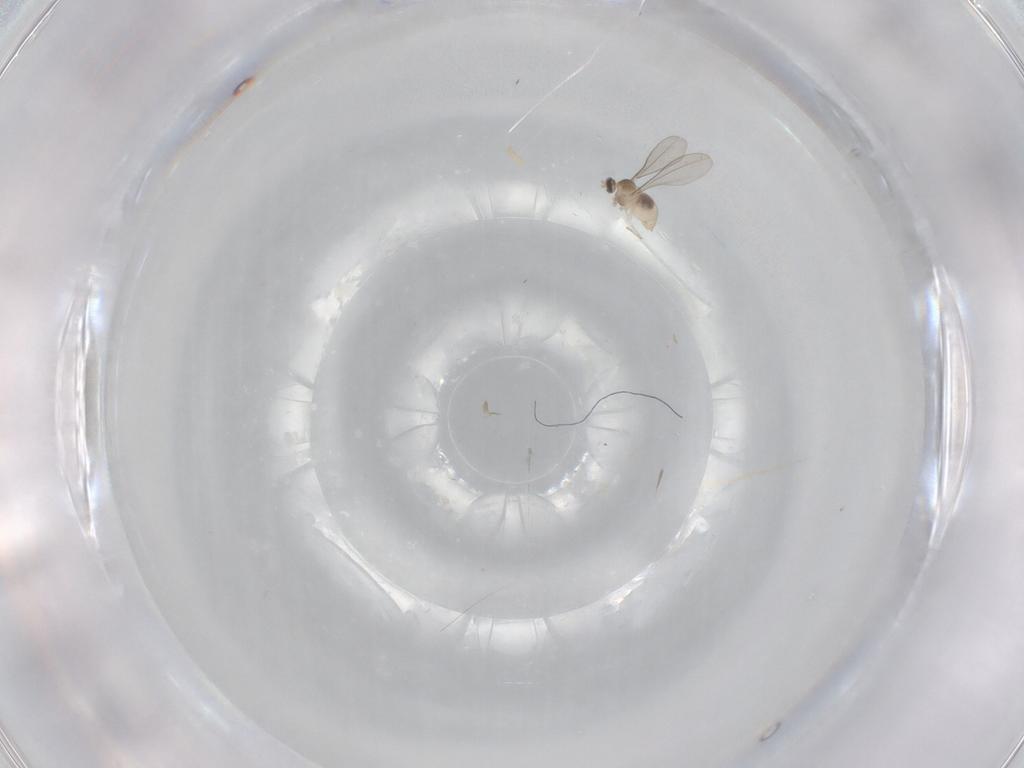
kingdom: Animalia
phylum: Arthropoda
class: Insecta
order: Diptera
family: Cecidomyiidae
